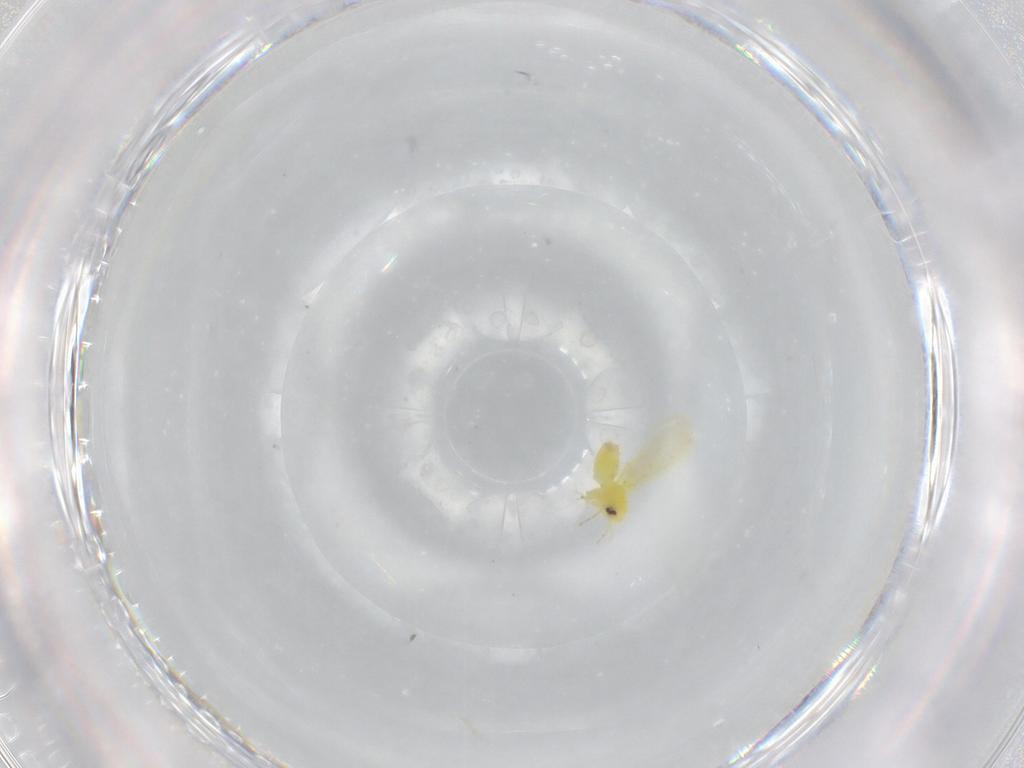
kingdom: Animalia
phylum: Arthropoda
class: Insecta
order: Hemiptera
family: Aleyrodidae
